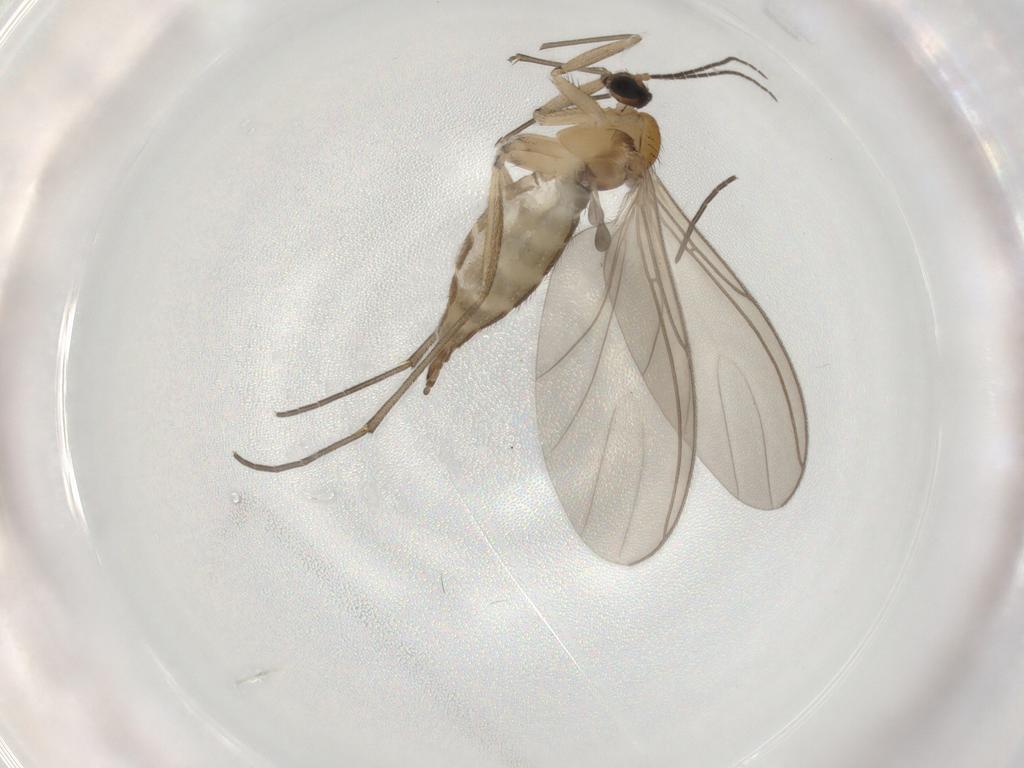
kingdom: Animalia
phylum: Arthropoda
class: Insecta
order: Diptera
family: Sciaridae
